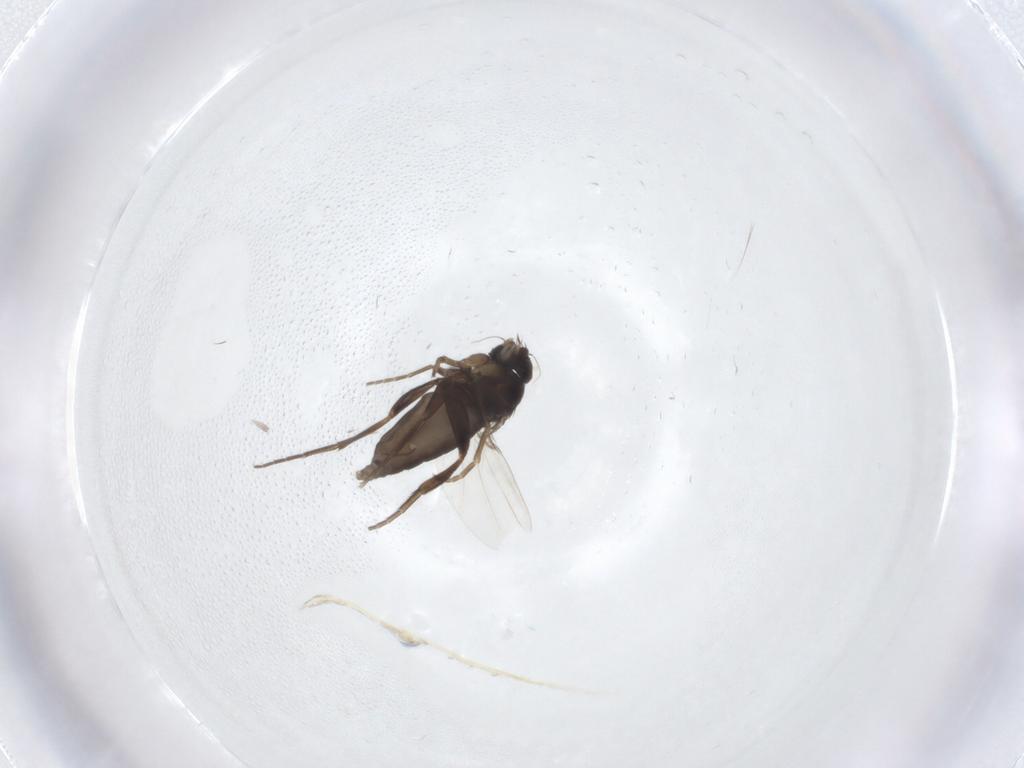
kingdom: Animalia
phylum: Arthropoda
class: Insecta
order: Diptera
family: Phoridae
